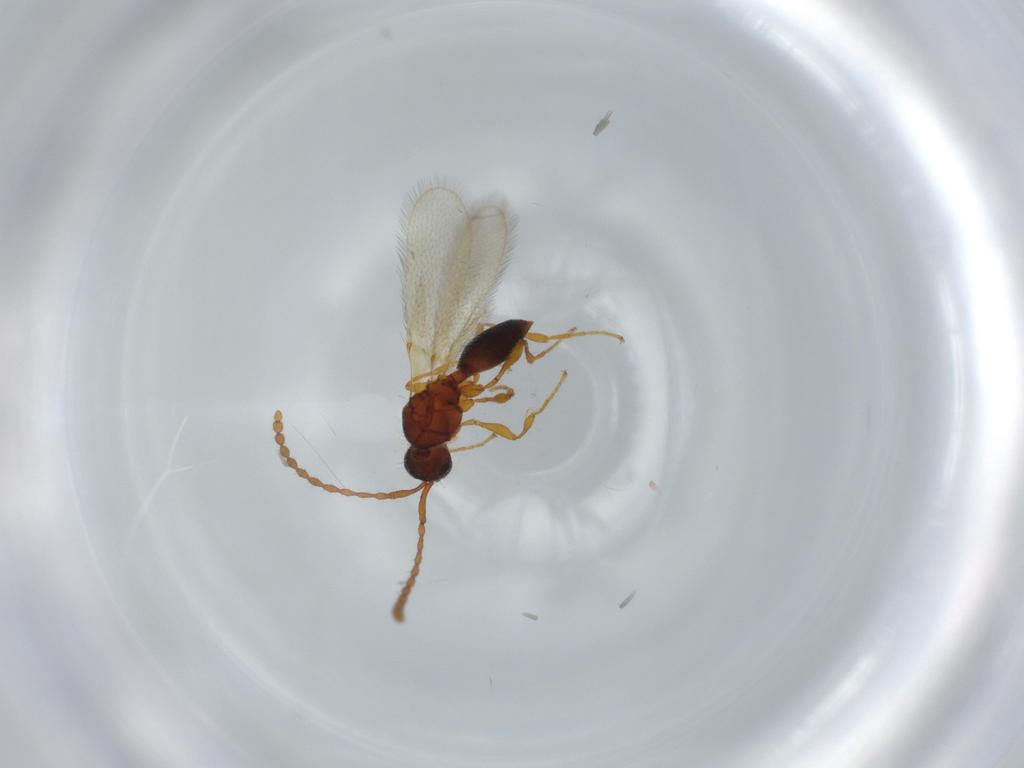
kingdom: Animalia
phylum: Arthropoda
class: Insecta
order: Hymenoptera
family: Diapriidae
